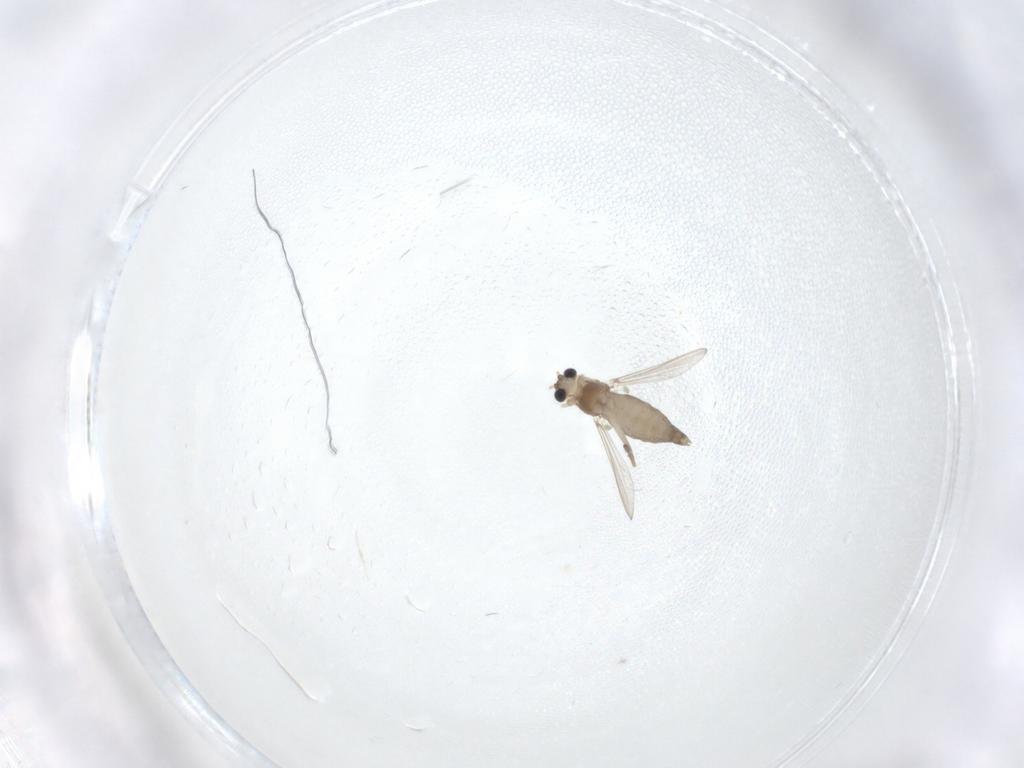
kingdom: Animalia
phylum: Arthropoda
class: Insecta
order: Diptera
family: Chironomidae
